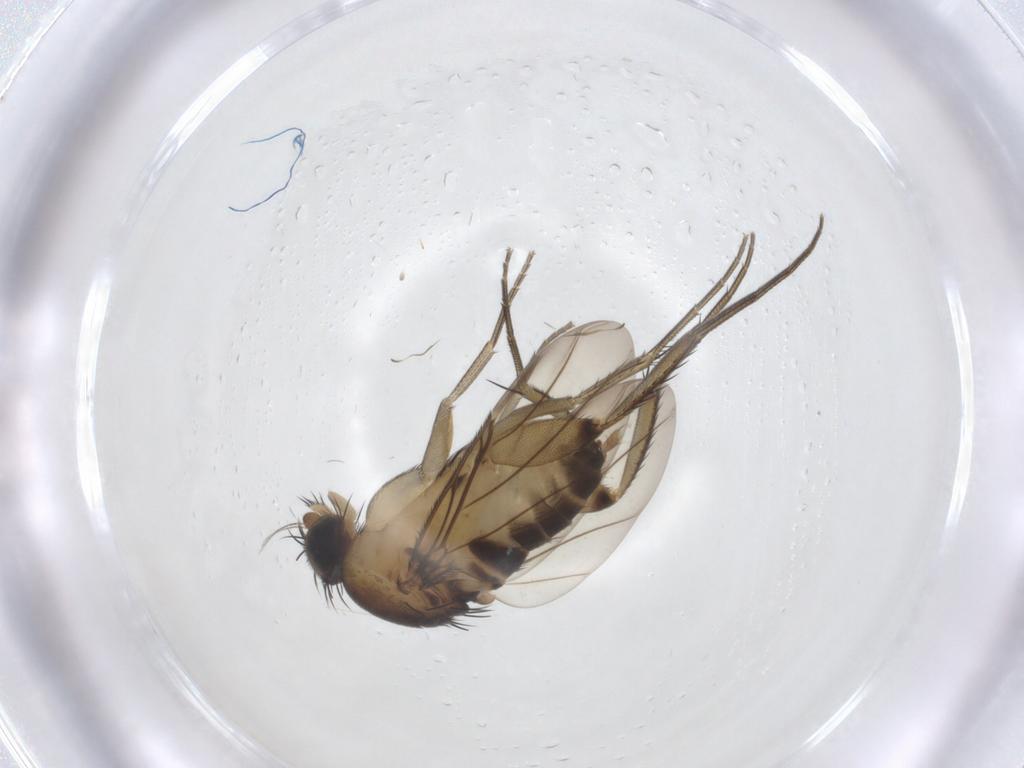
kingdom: Animalia
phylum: Arthropoda
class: Insecta
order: Diptera
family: Phoridae
